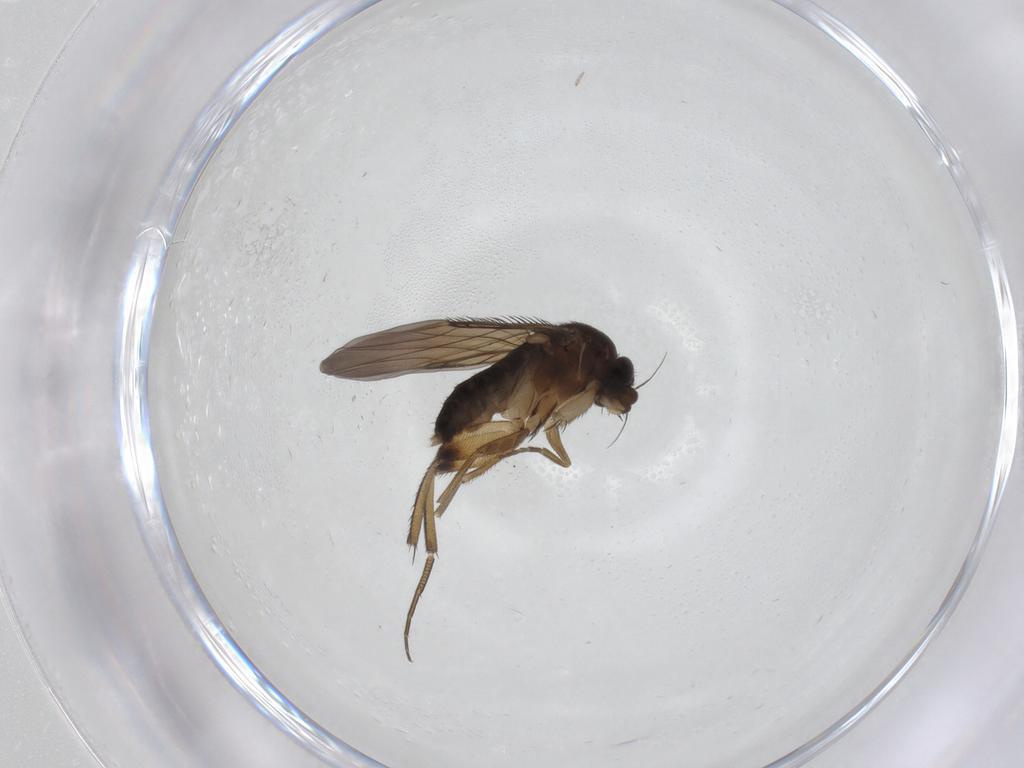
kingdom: Animalia
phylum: Arthropoda
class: Insecta
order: Diptera
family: Phoridae
